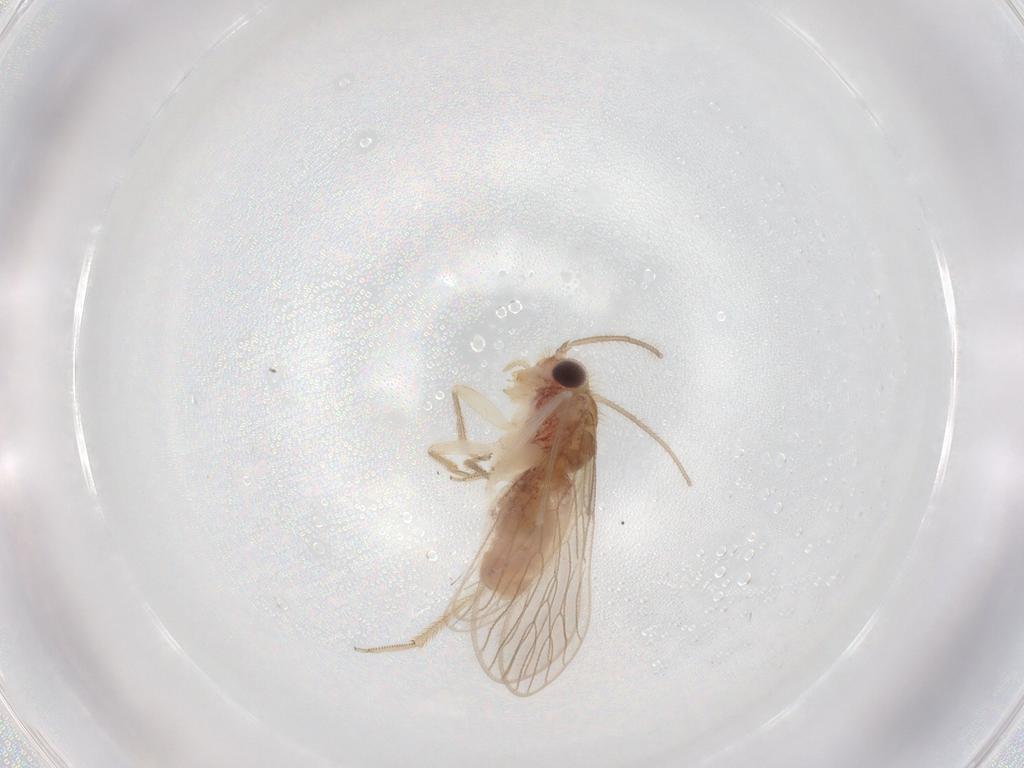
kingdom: Animalia
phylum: Arthropoda
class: Insecta
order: Psocodea
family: Cladiopsocidae
